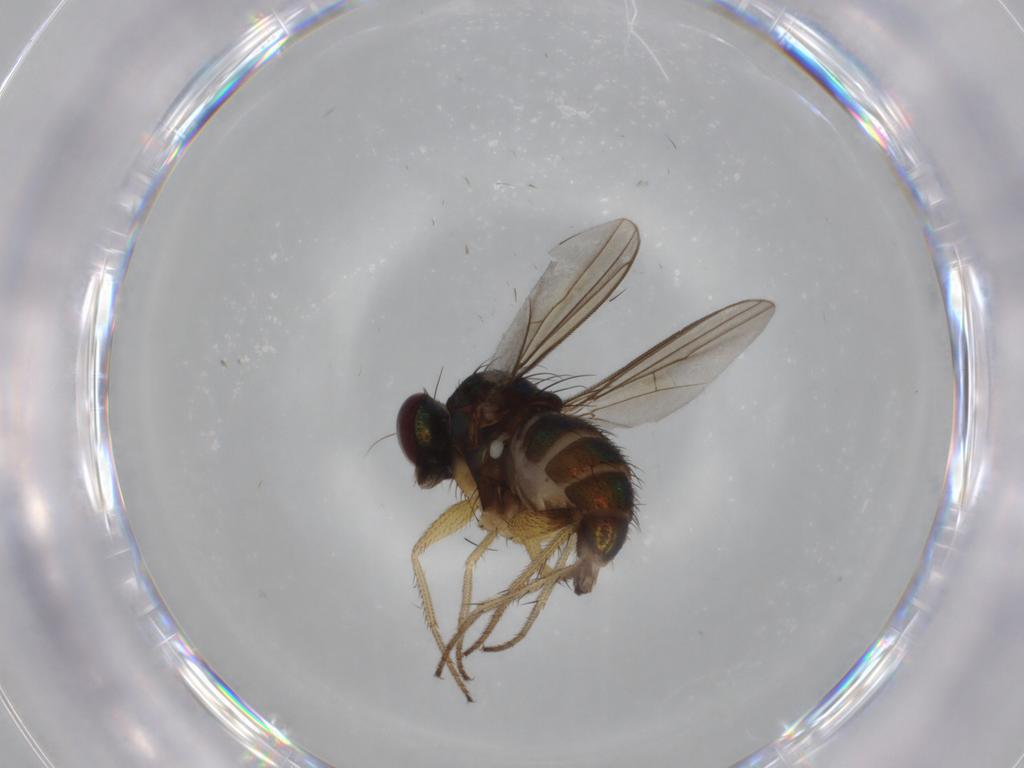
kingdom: Animalia
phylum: Arthropoda
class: Insecta
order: Diptera
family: Dolichopodidae
